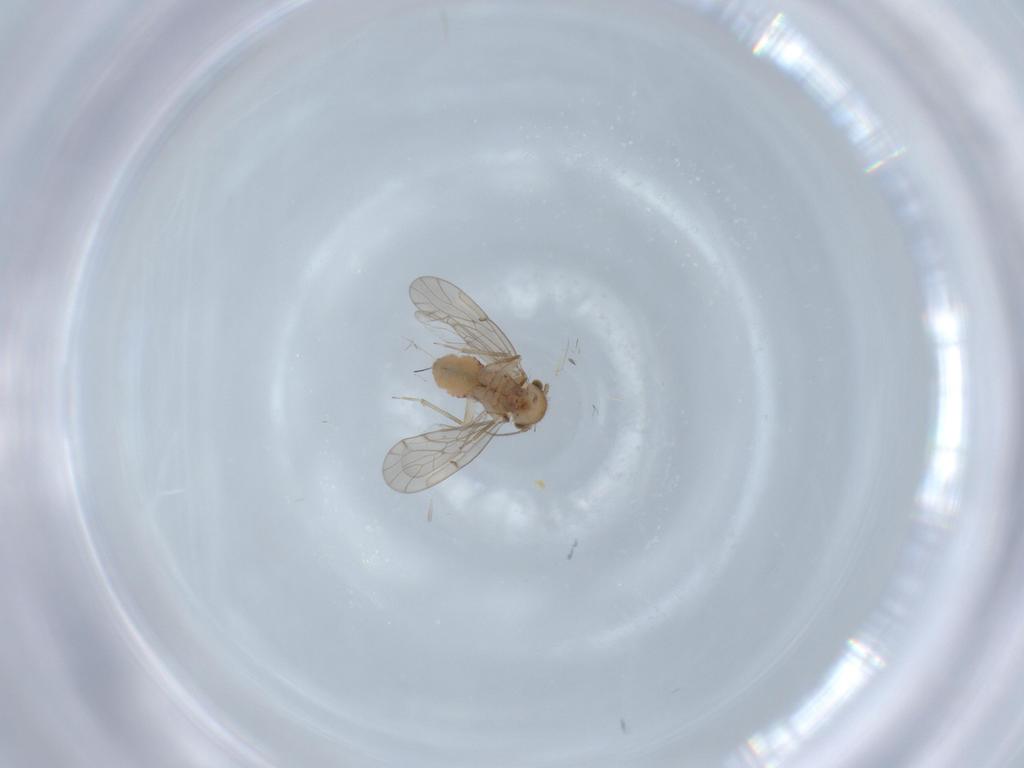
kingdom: Animalia
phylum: Arthropoda
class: Insecta
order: Psocodea
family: Ectopsocidae
